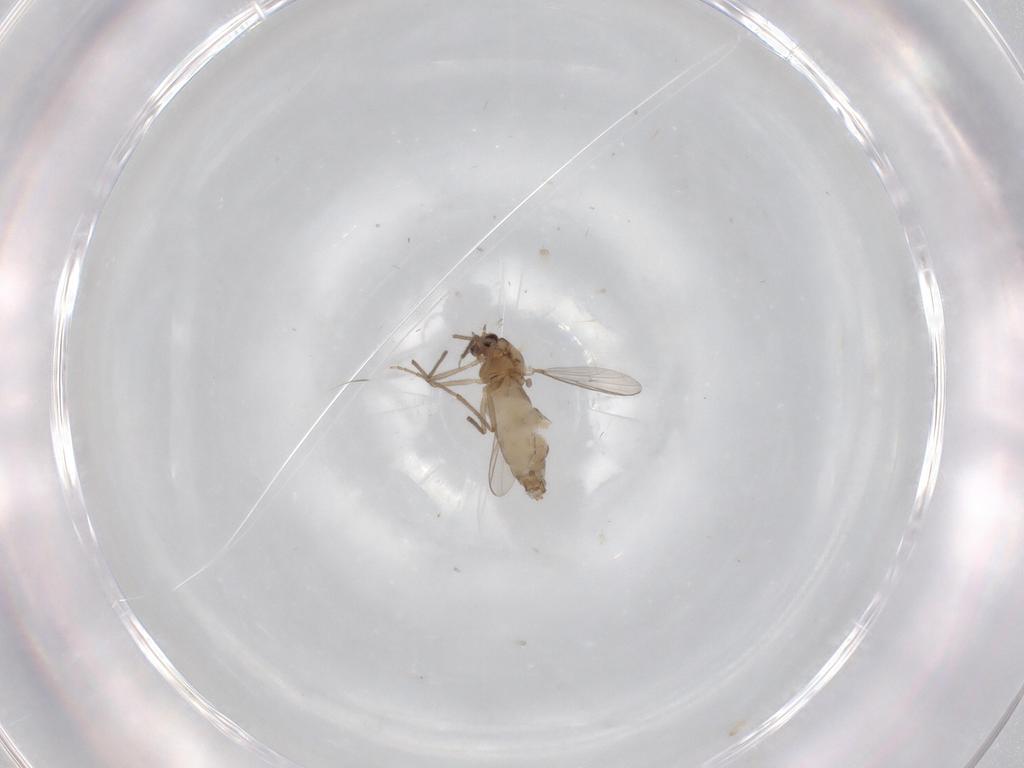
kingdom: Animalia
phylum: Arthropoda
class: Insecta
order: Diptera
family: Chironomidae
